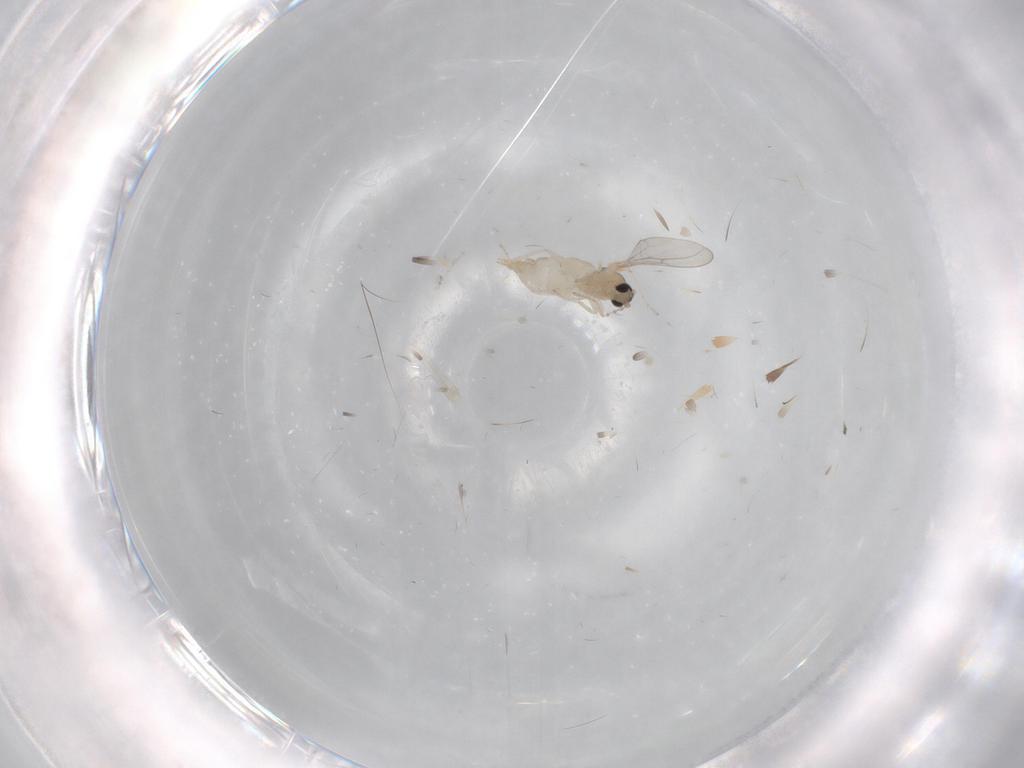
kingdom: Animalia
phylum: Arthropoda
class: Insecta
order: Diptera
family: Cecidomyiidae
